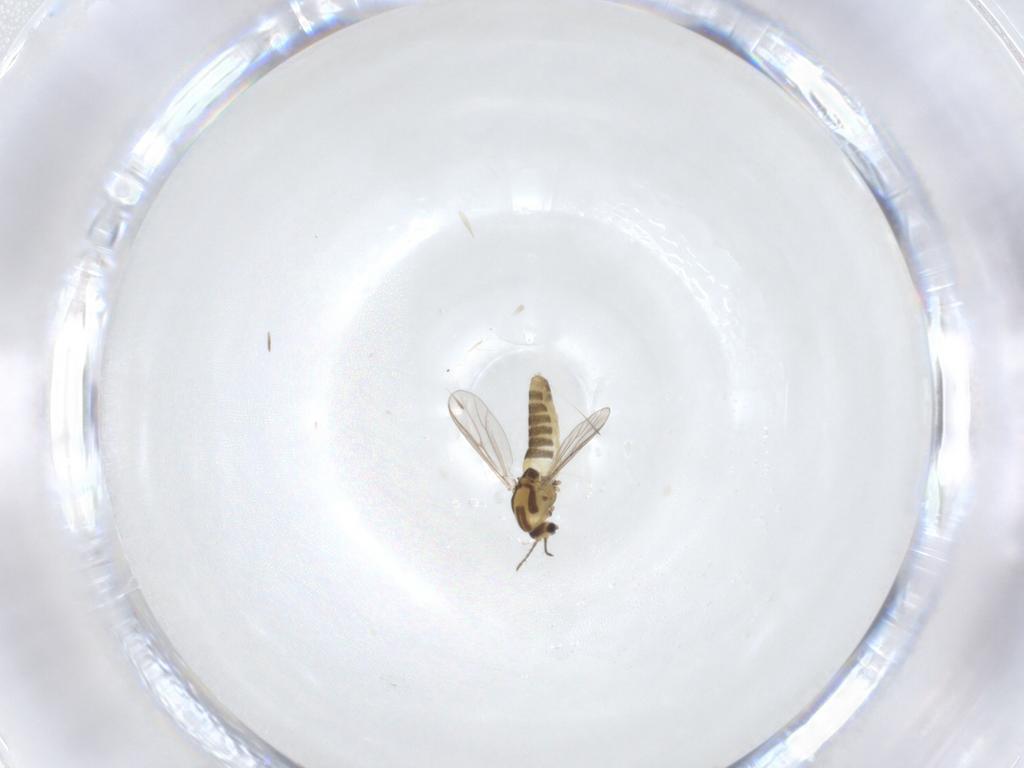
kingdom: Animalia
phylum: Arthropoda
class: Insecta
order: Diptera
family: Chironomidae
